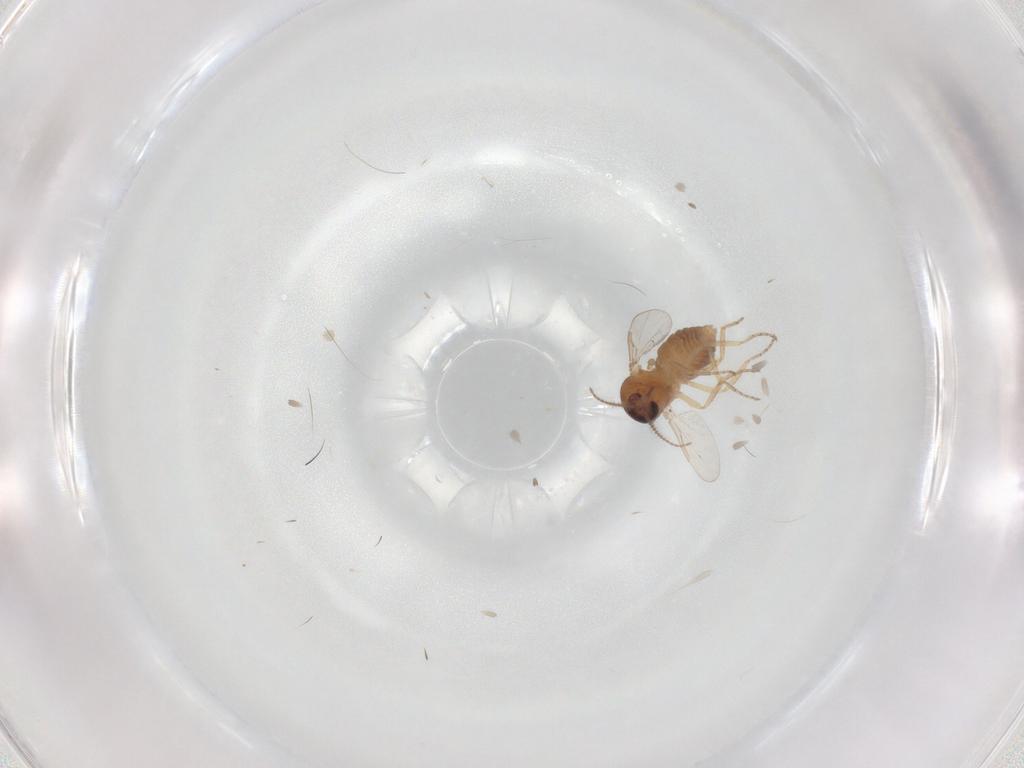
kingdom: Animalia
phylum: Arthropoda
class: Insecta
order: Diptera
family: Ceratopogonidae
